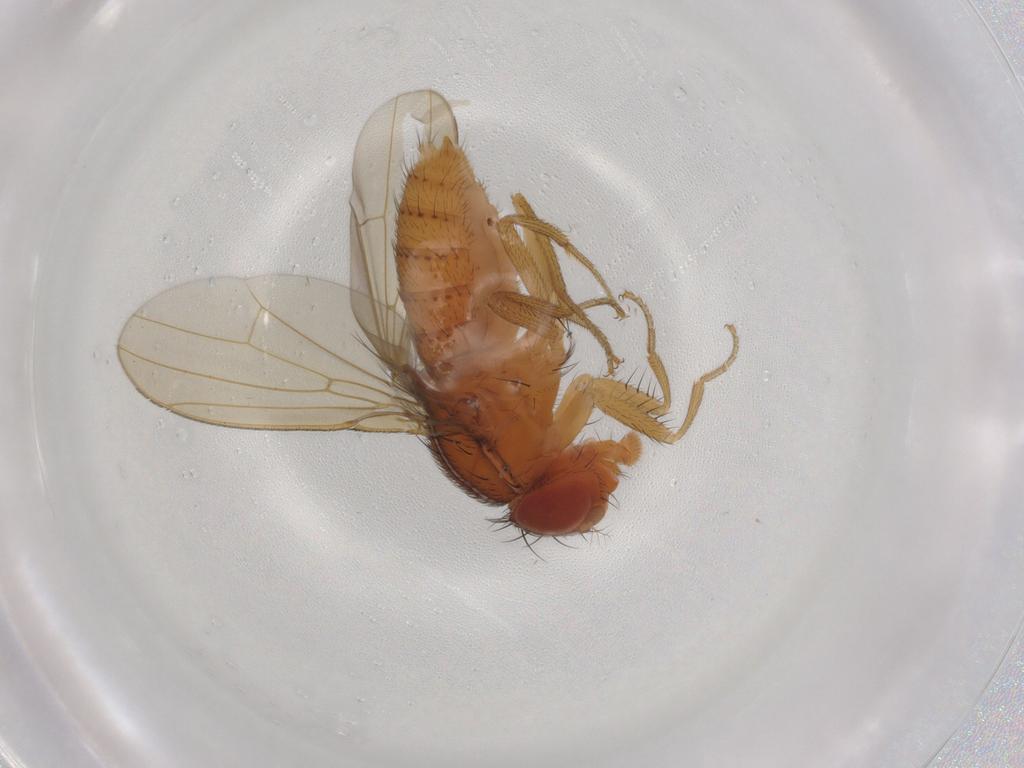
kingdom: Animalia
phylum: Arthropoda
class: Insecta
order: Diptera
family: Drosophilidae
